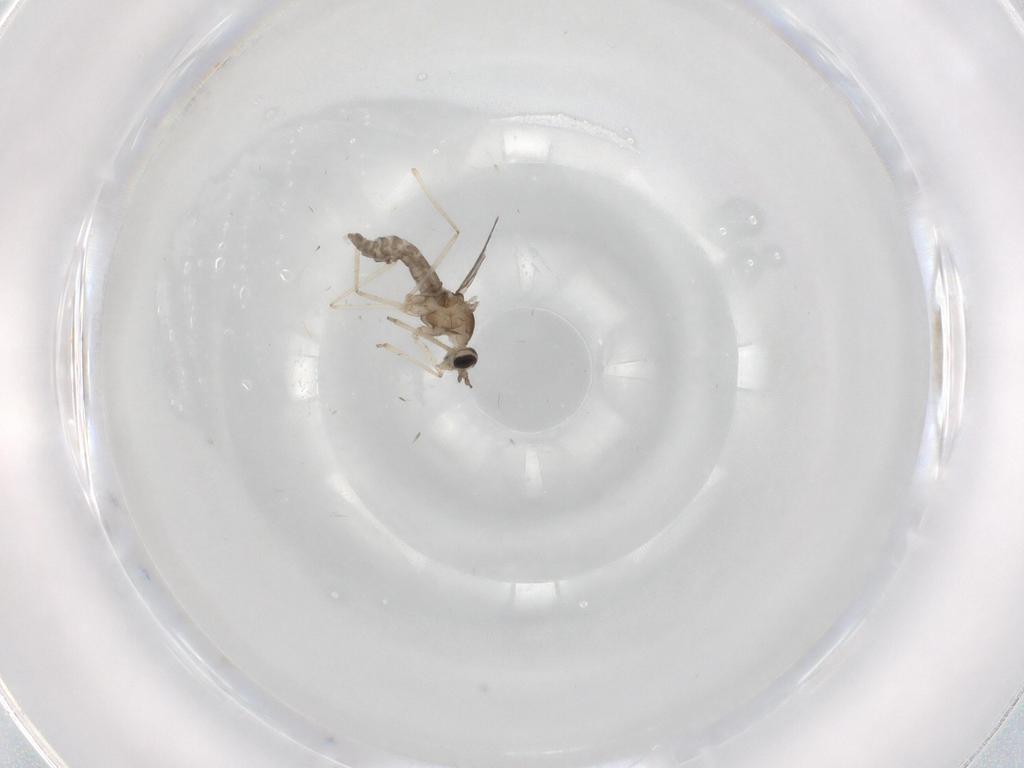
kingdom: Animalia
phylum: Arthropoda
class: Insecta
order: Diptera
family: Cecidomyiidae
